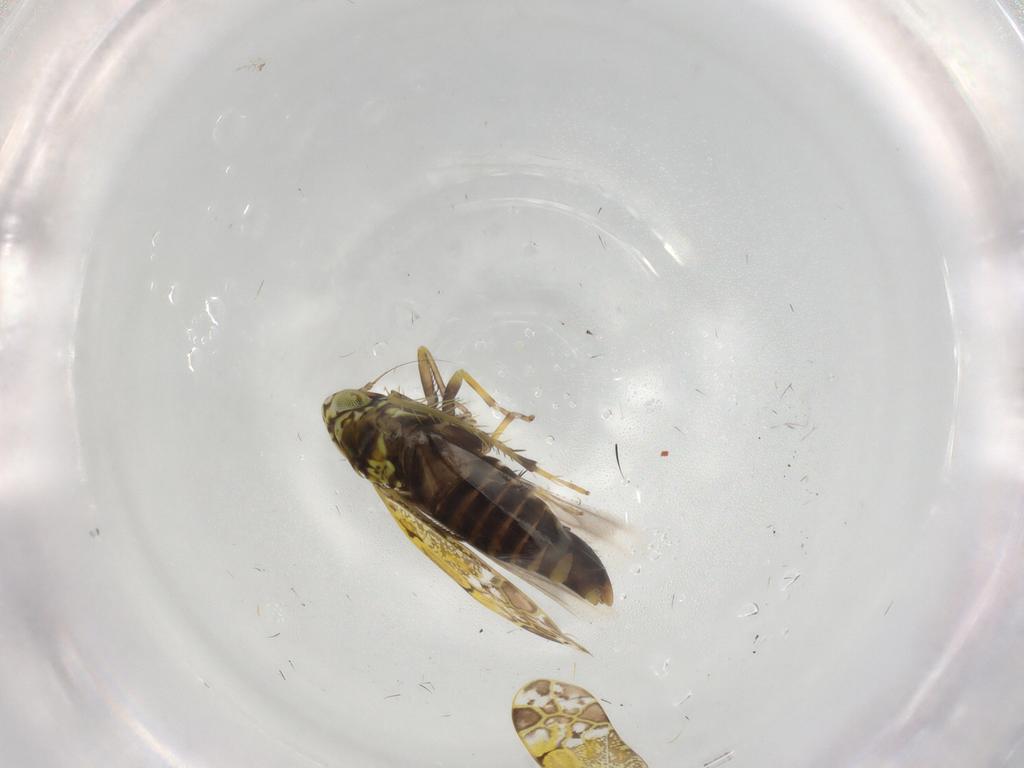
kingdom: Animalia
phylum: Arthropoda
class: Insecta
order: Hemiptera
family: Cicadellidae
